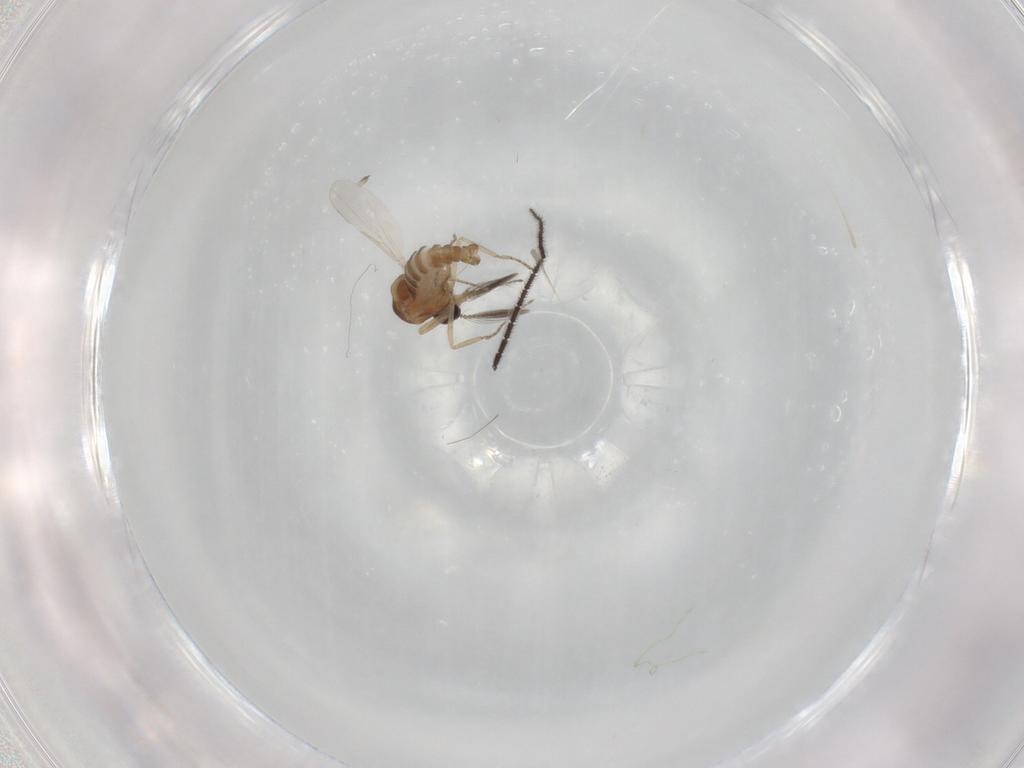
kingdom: Animalia
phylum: Arthropoda
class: Insecta
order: Diptera
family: Ceratopogonidae
